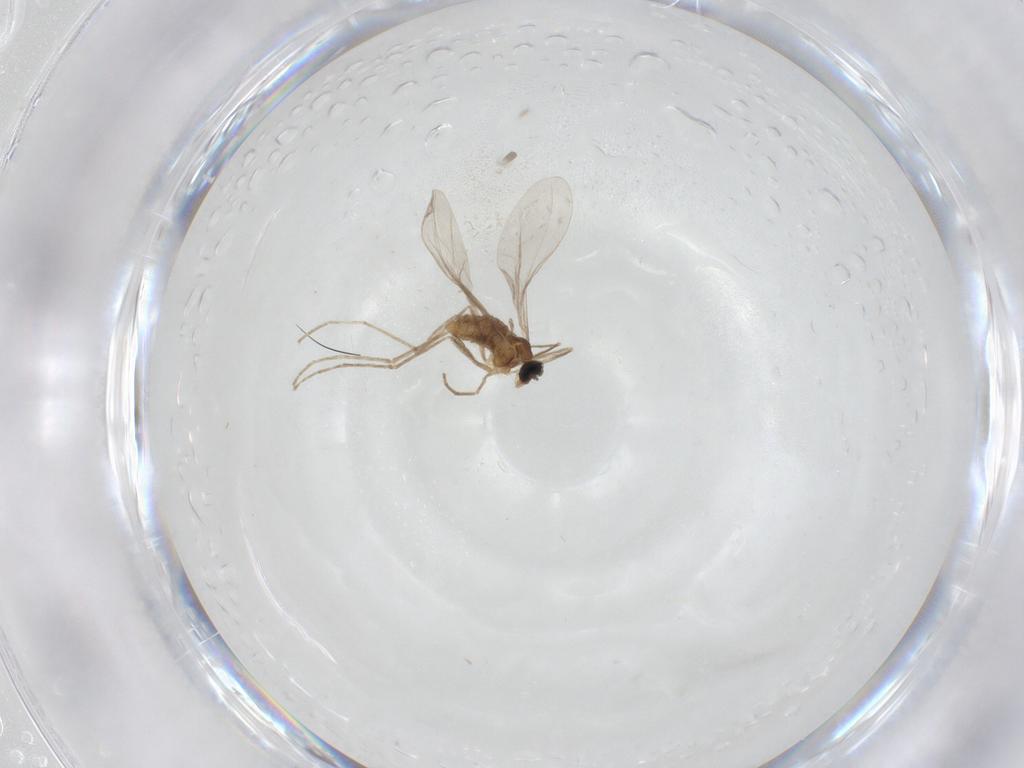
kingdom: Animalia
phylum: Arthropoda
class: Insecta
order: Diptera
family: Cecidomyiidae
